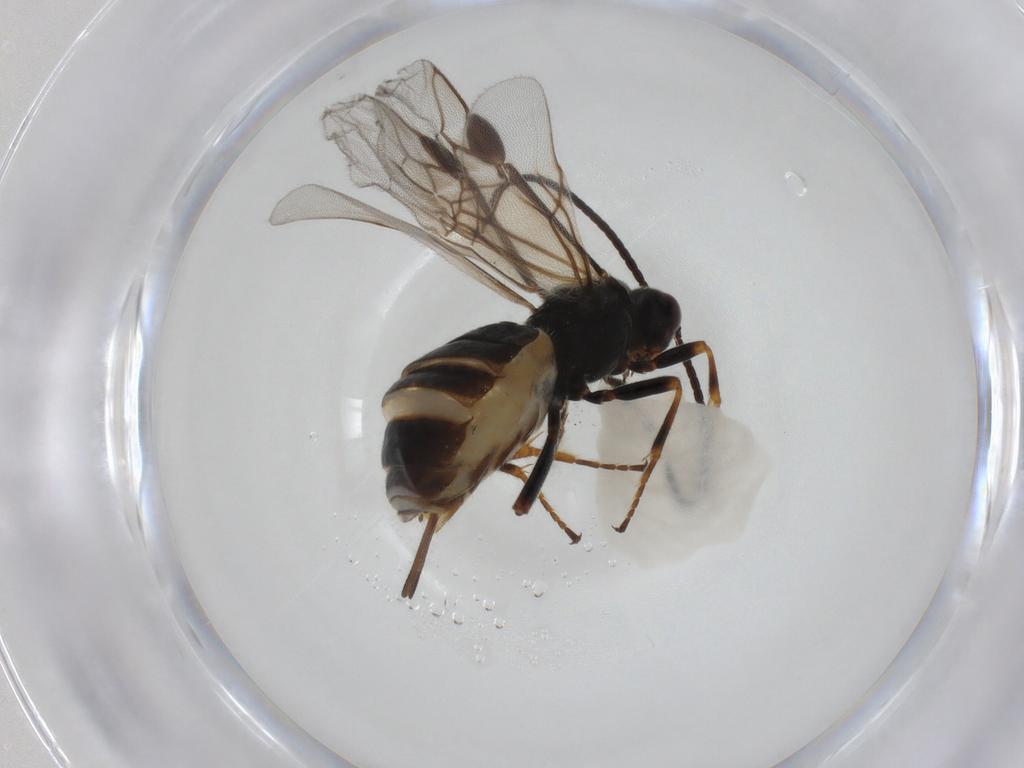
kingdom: Animalia
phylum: Arthropoda
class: Insecta
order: Hymenoptera
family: Braconidae
